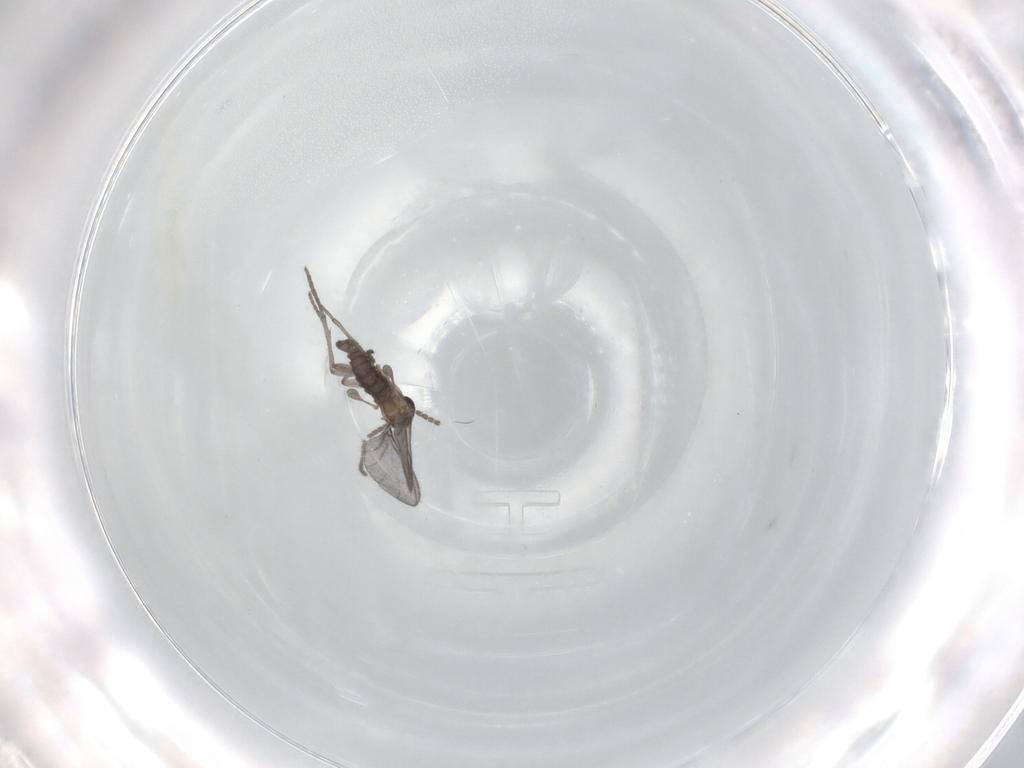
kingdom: Animalia
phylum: Arthropoda
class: Insecta
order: Diptera
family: Sciaridae
